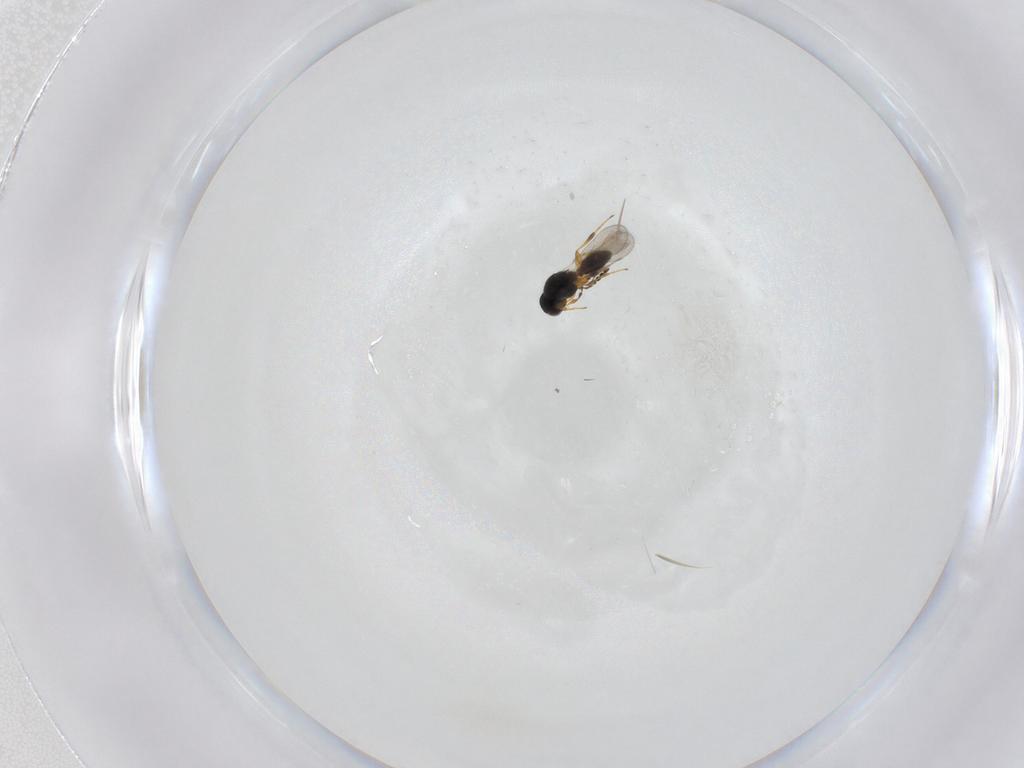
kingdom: Animalia
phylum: Arthropoda
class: Insecta
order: Hymenoptera
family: Platygastridae
